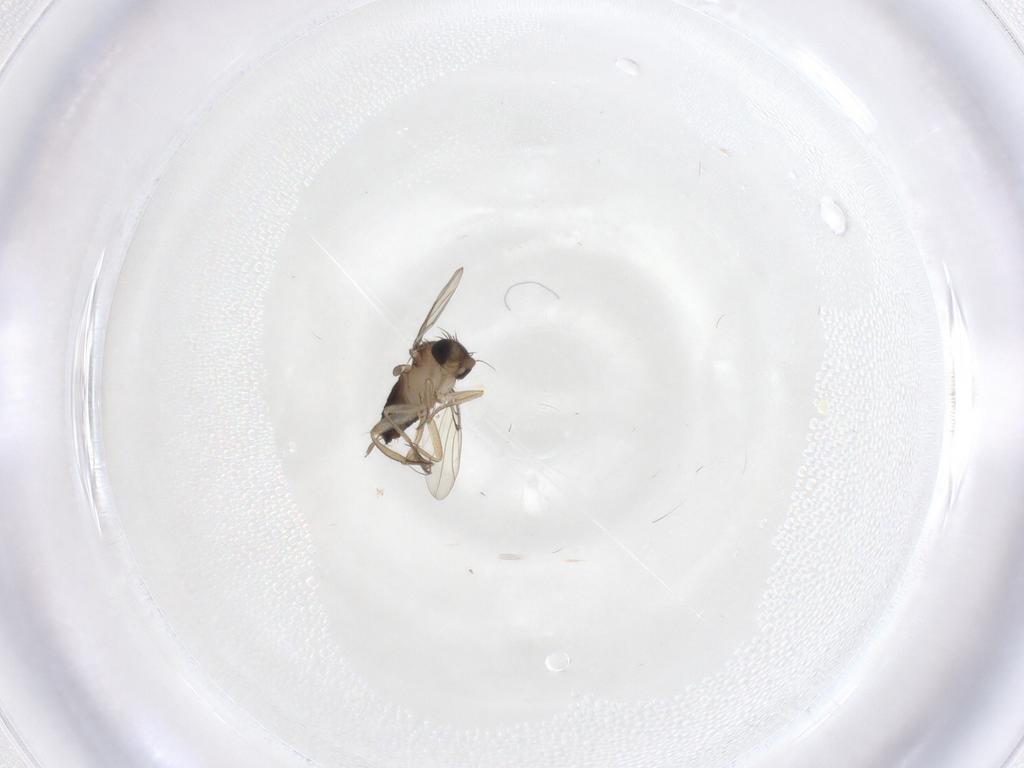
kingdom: Animalia
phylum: Arthropoda
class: Insecta
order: Diptera
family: Phoridae
